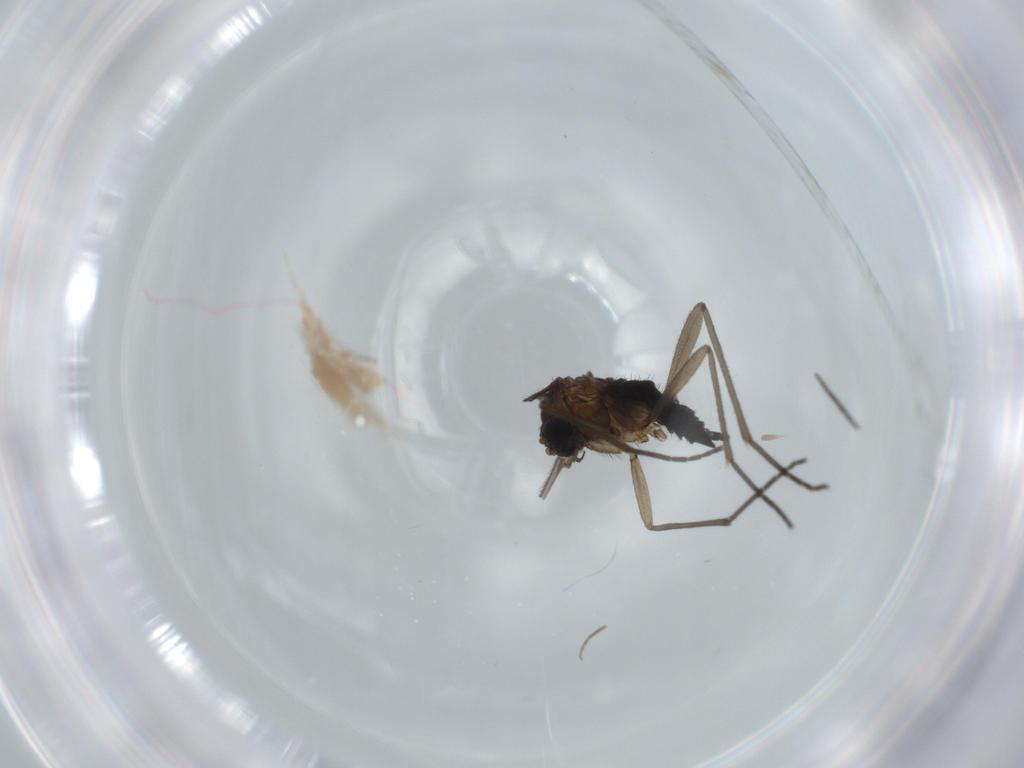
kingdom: Animalia
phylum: Arthropoda
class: Insecta
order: Diptera
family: Sciaridae
